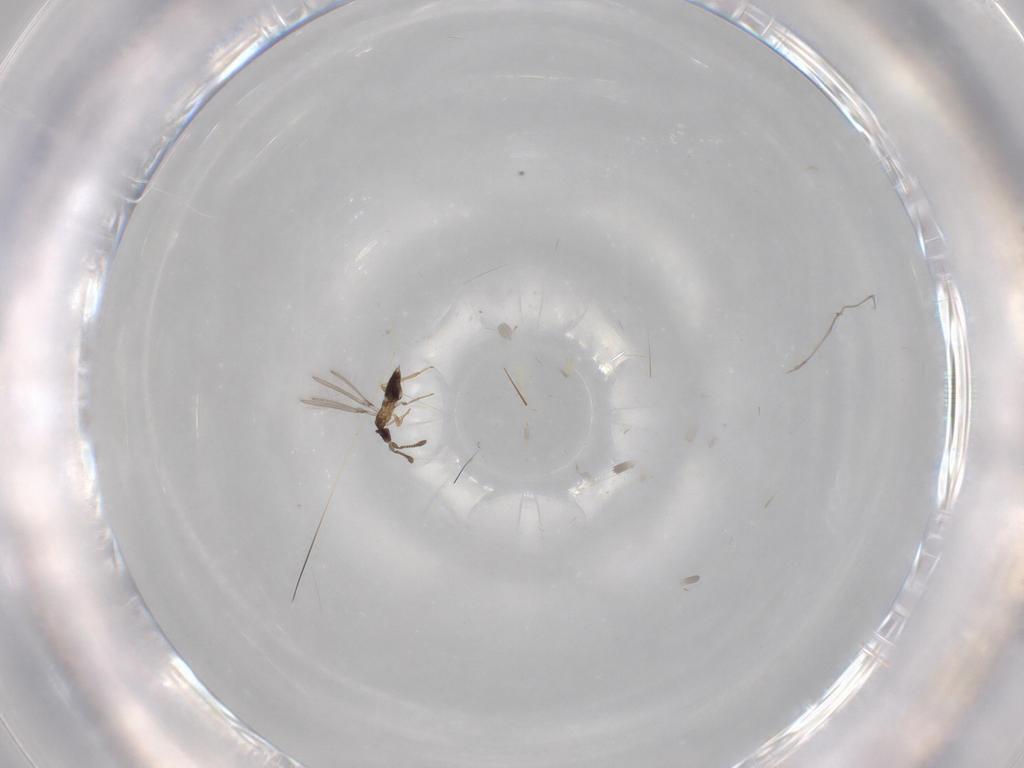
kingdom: Animalia
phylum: Arthropoda
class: Insecta
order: Hymenoptera
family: Mymaridae
